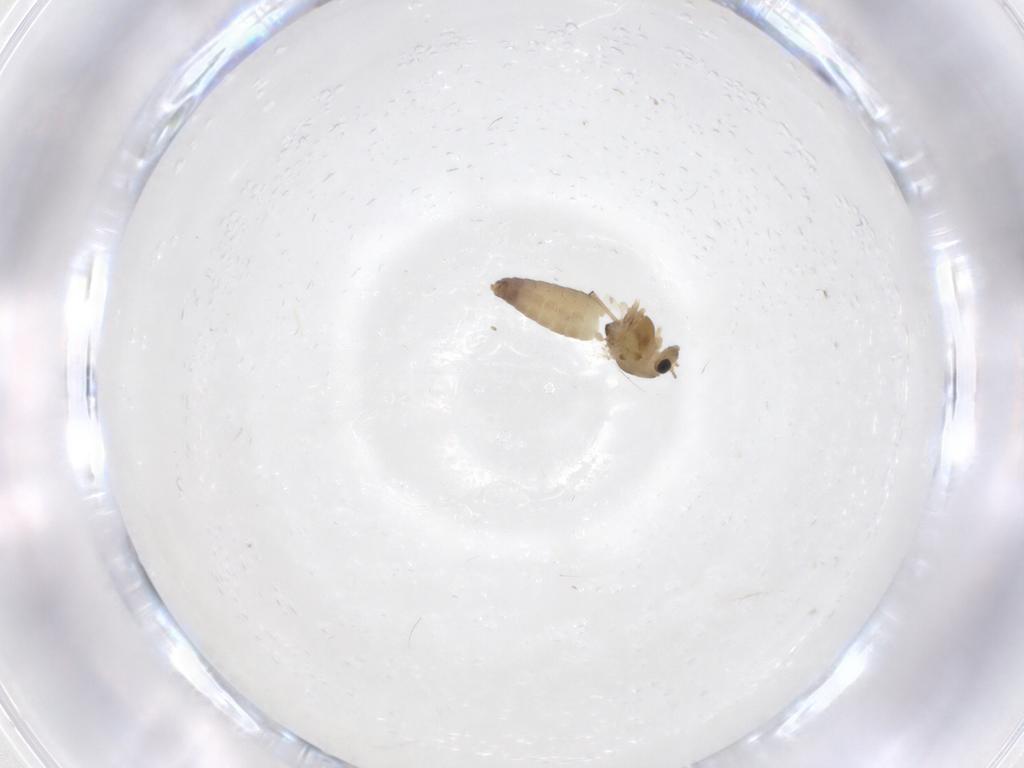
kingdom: Animalia
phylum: Arthropoda
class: Insecta
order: Diptera
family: Chironomidae
